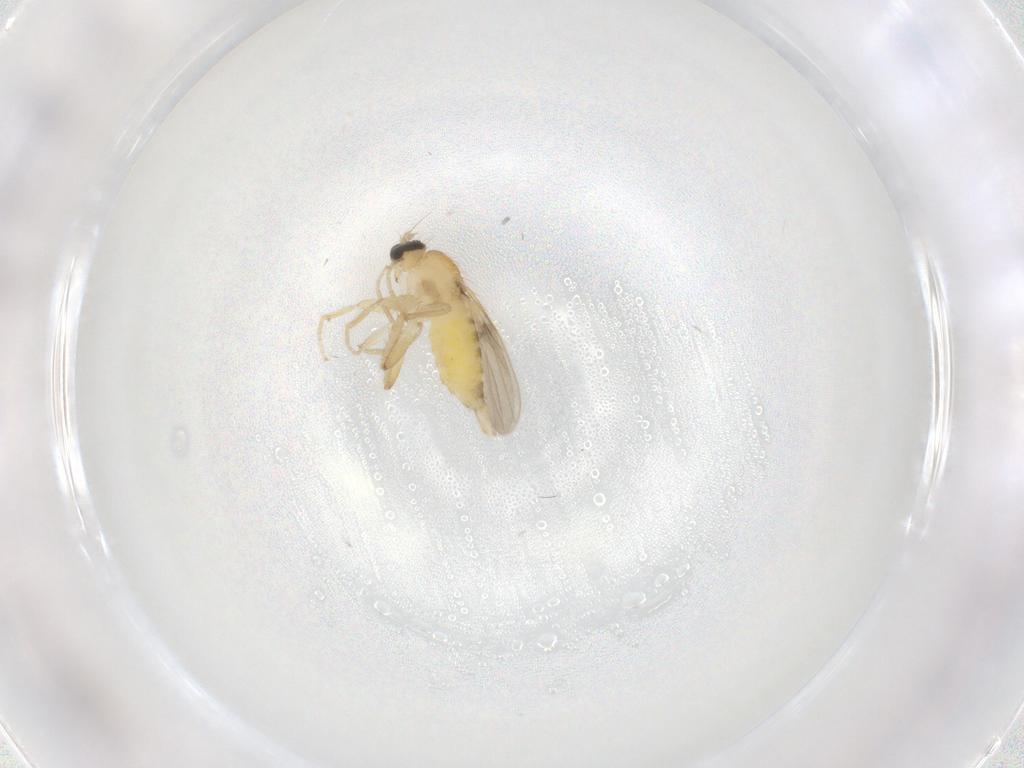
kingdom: Animalia
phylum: Arthropoda
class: Insecta
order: Diptera
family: Hybotidae
